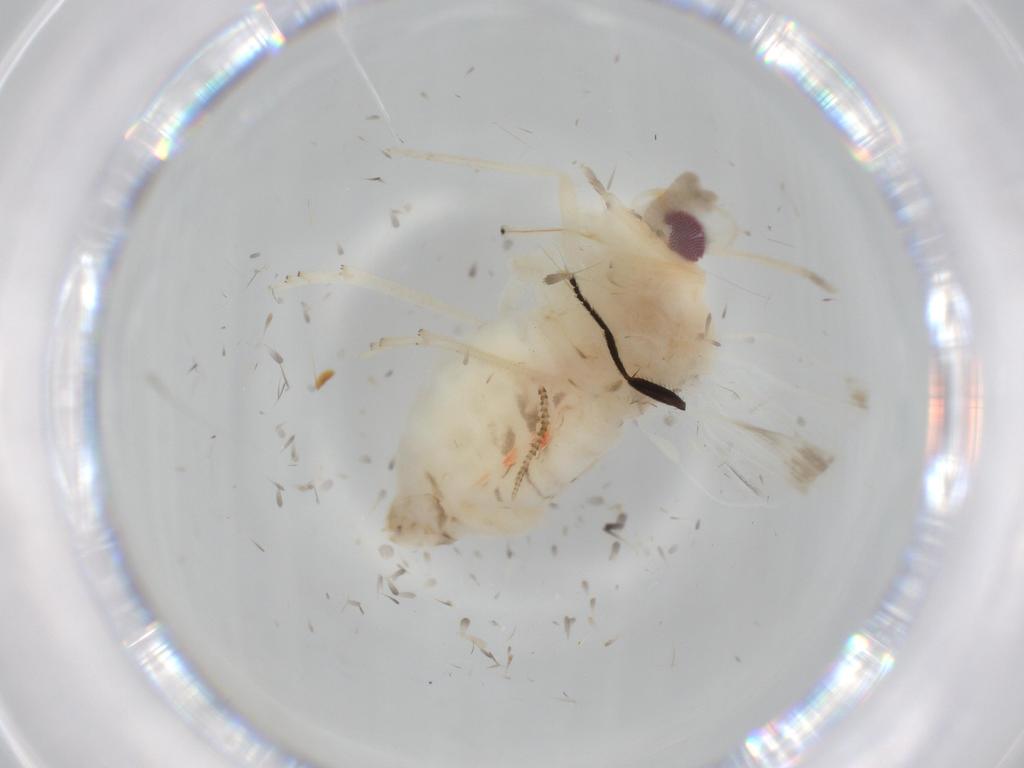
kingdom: Animalia
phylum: Arthropoda
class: Insecta
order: Hemiptera
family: Derbidae
